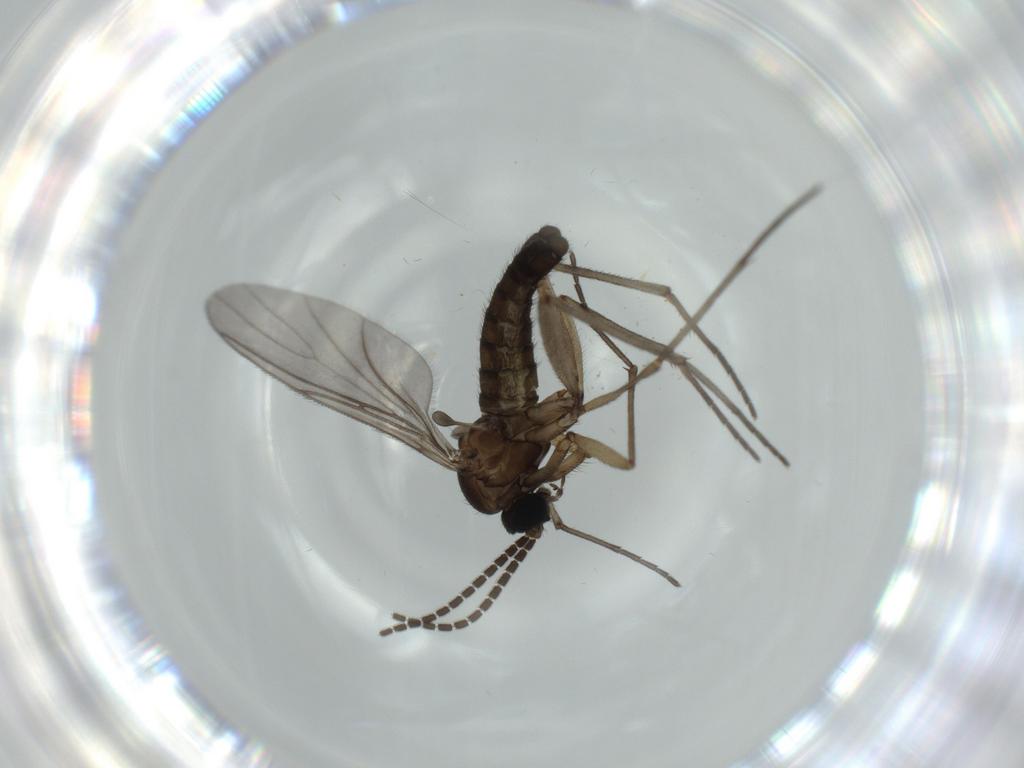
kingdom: Animalia
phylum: Arthropoda
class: Insecta
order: Diptera
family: Sciaridae
